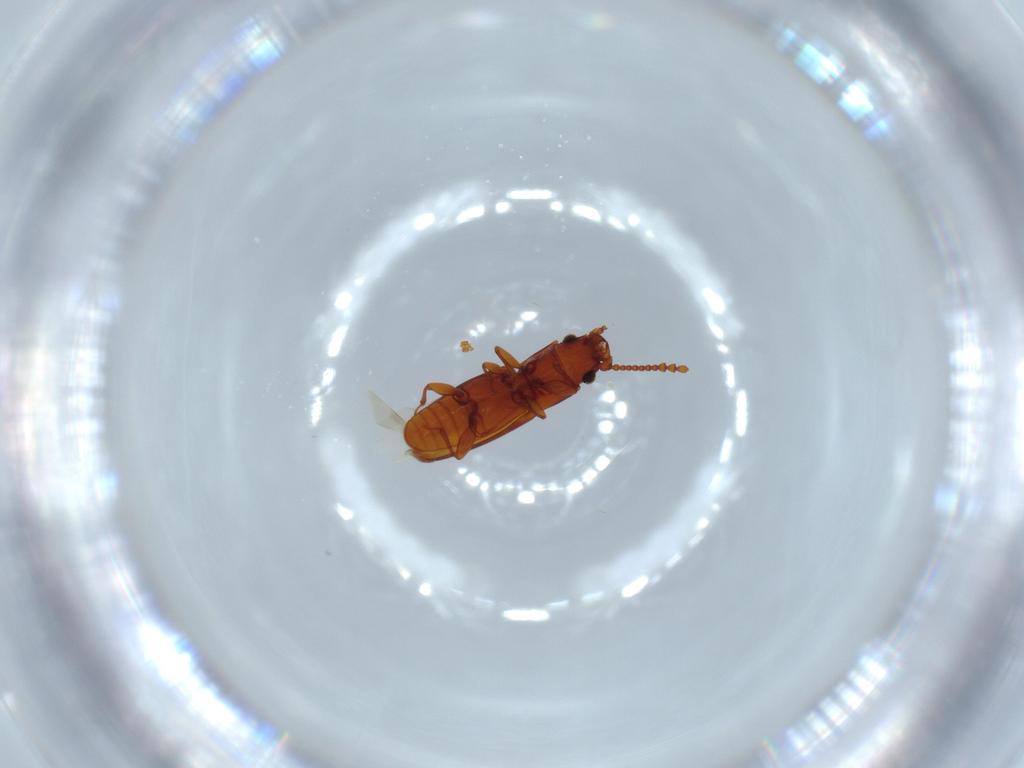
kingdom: Animalia
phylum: Arthropoda
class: Insecta
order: Coleoptera
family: Curculionidae
